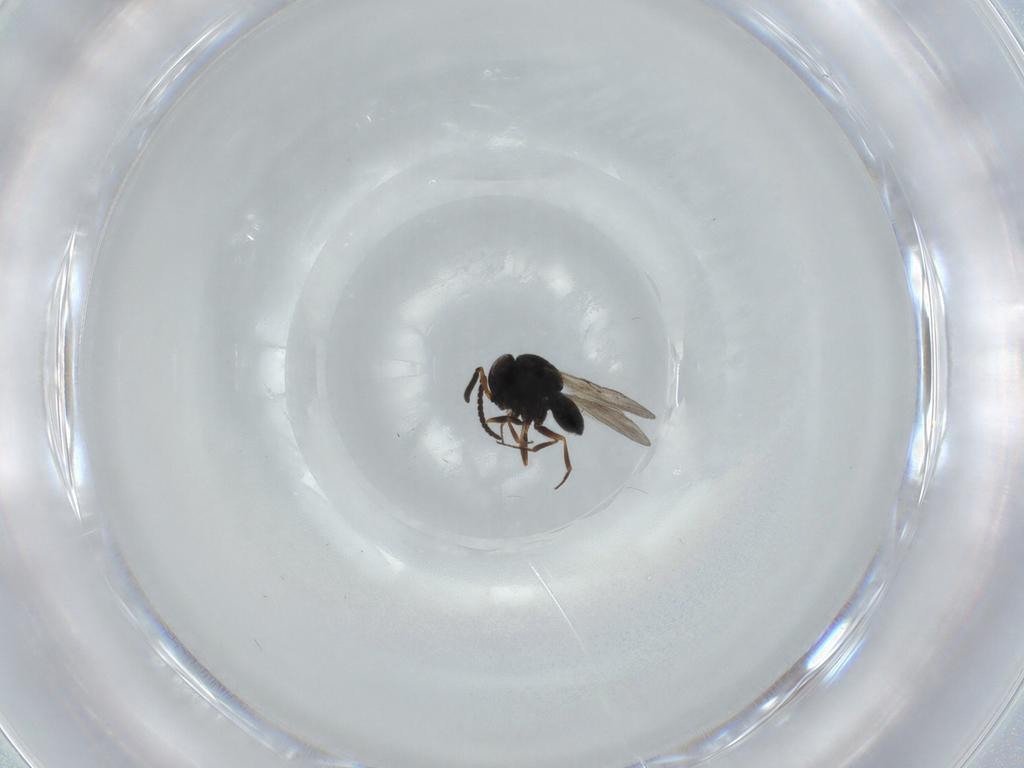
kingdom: Animalia
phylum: Arthropoda
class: Insecta
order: Hymenoptera
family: Scelionidae
